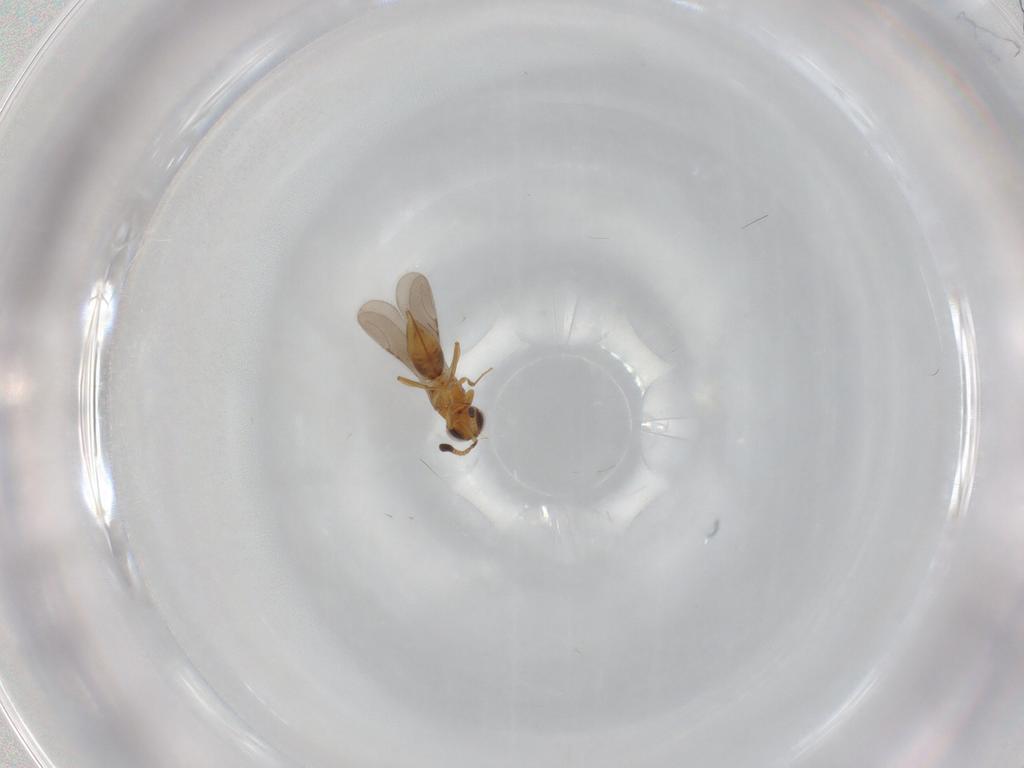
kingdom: Animalia
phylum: Arthropoda
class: Insecta
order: Hymenoptera
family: Ceraphronidae
